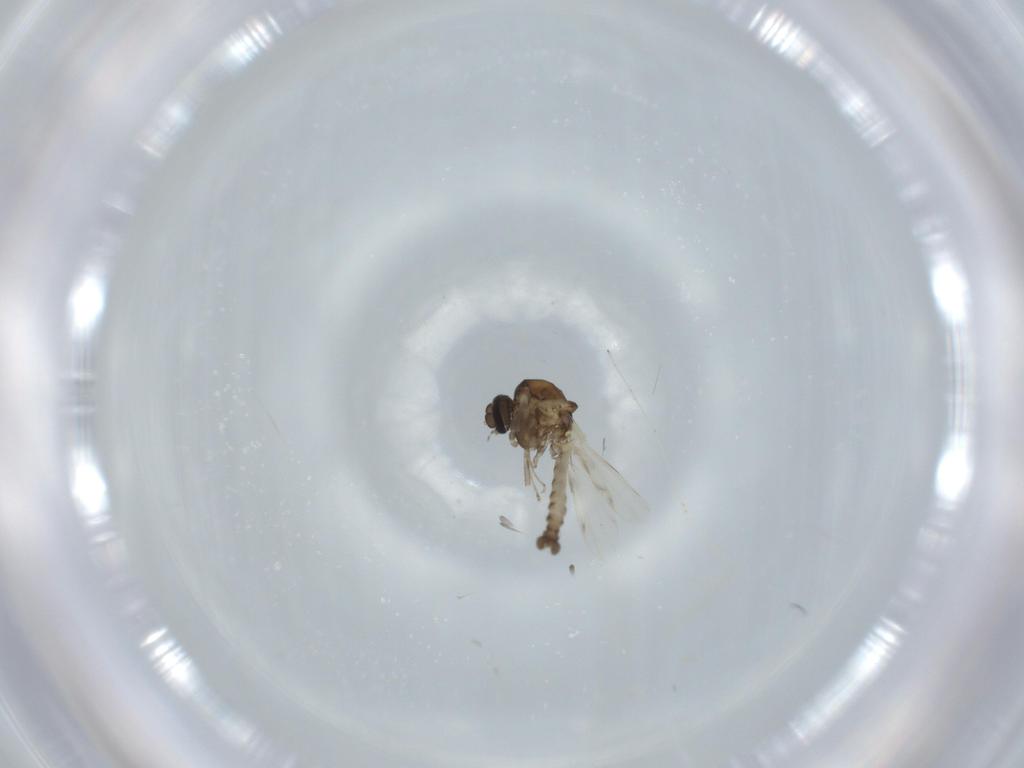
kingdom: Animalia
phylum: Arthropoda
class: Insecta
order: Diptera
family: Ceratopogonidae
